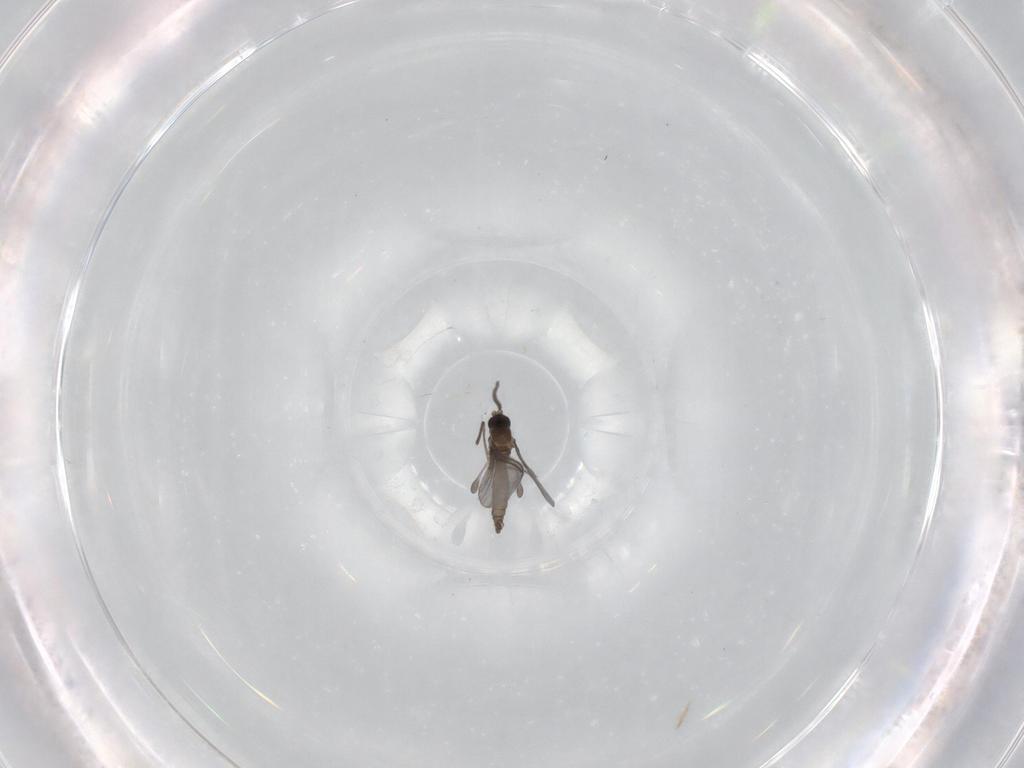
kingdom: Animalia
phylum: Arthropoda
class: Insecta
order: Diptera
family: Sciaridae
